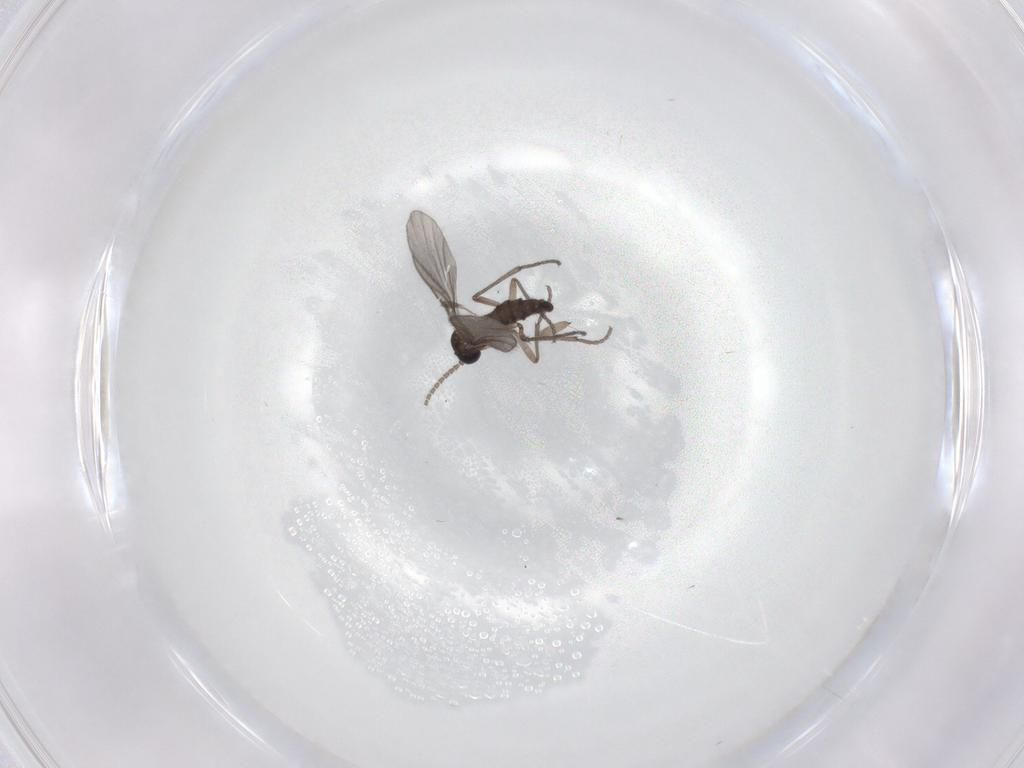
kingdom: Animalia
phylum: Arthropoda
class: Insecta
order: Diptera
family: Sciaridae
